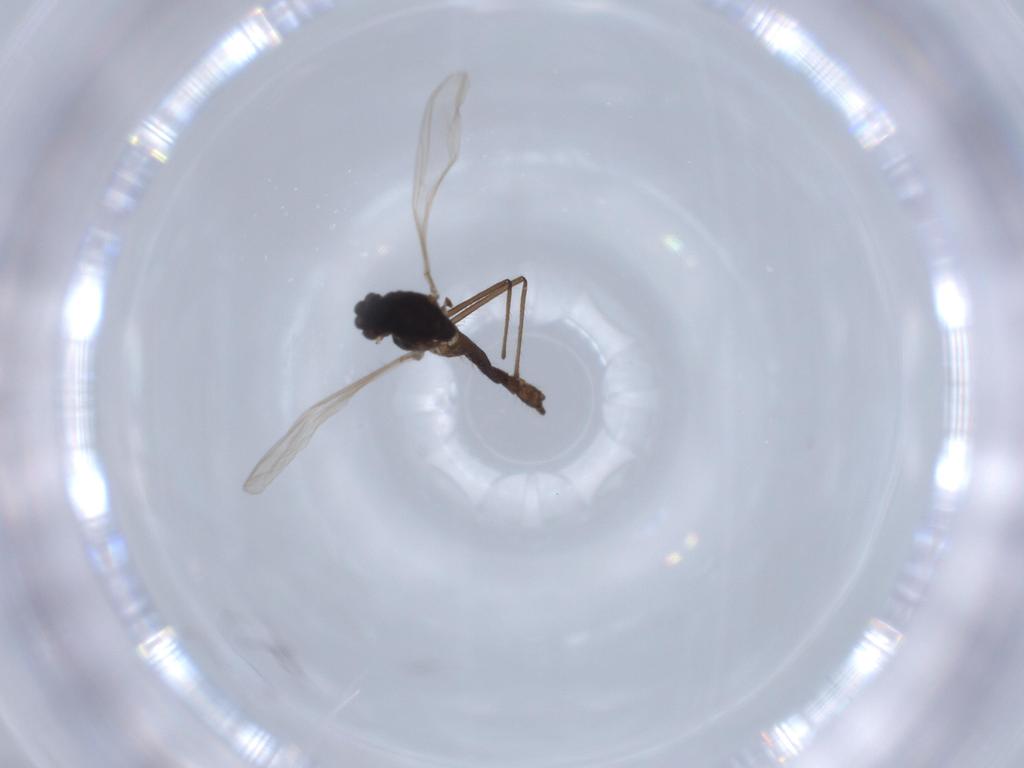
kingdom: Animalia
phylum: Arthropoda
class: Insecta
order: Diptera
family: Chironomidae
